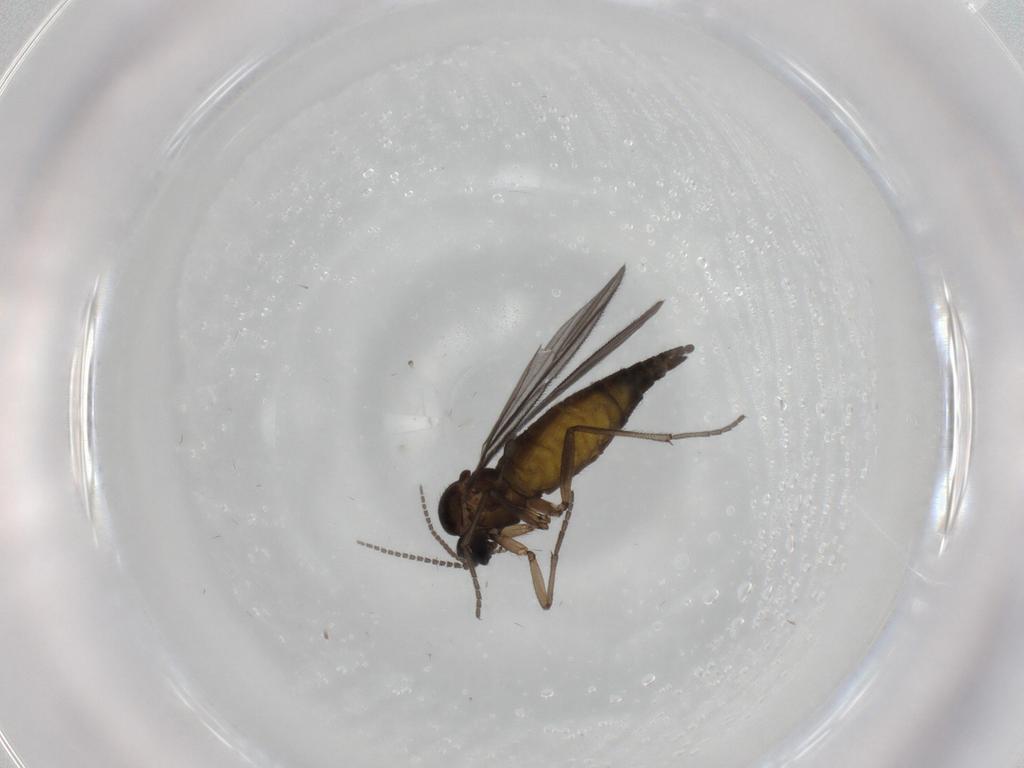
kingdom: Animalia
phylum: Arthropoda
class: Insecta
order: Diptera
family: Sciaridae
